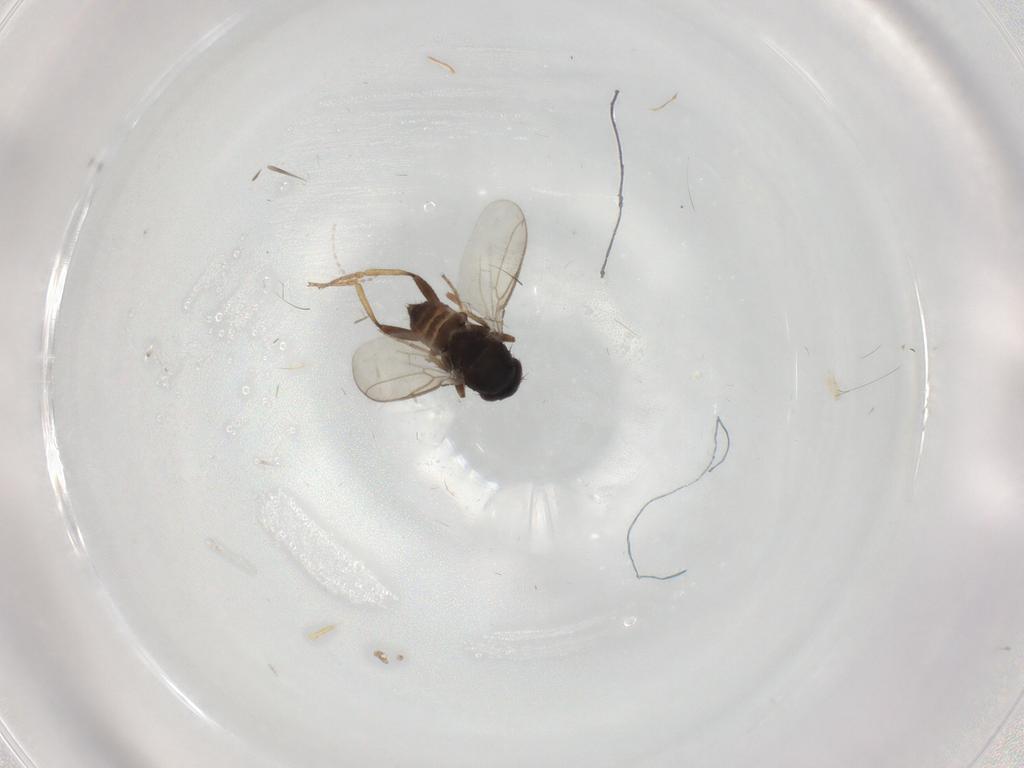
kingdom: Animalia
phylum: Arthropoda
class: Insecta
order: Diptera
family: Sphaeroceridae
